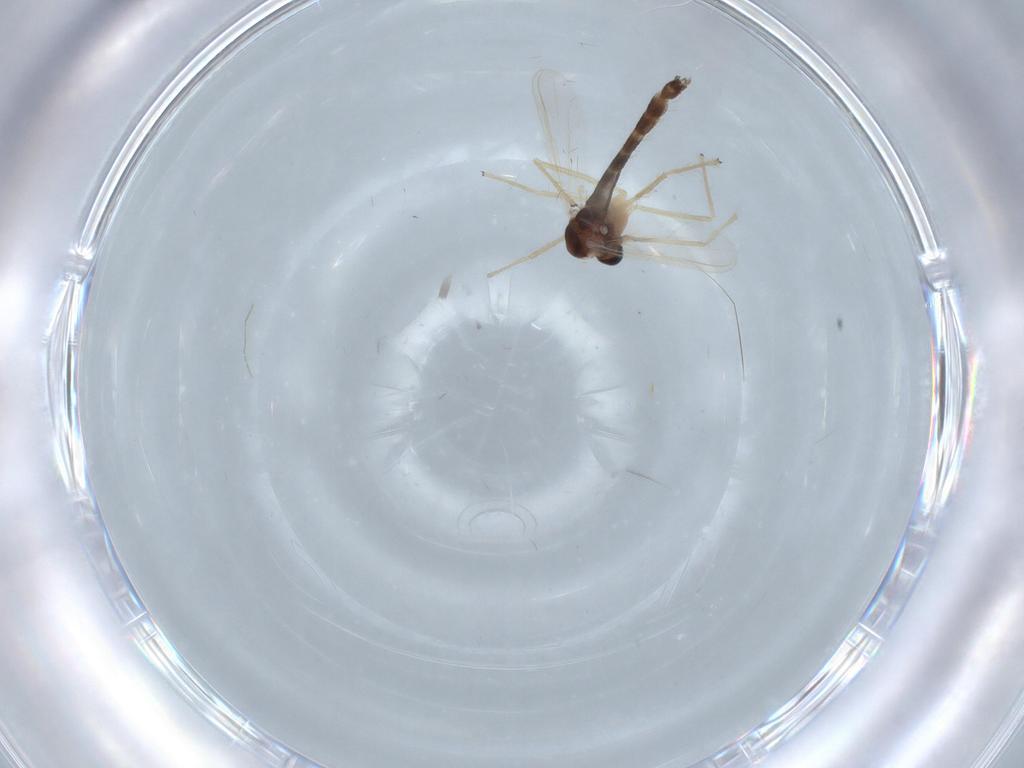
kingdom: Animalia
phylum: Arthropoda
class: Insecta
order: Diptera
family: Chironomidae
